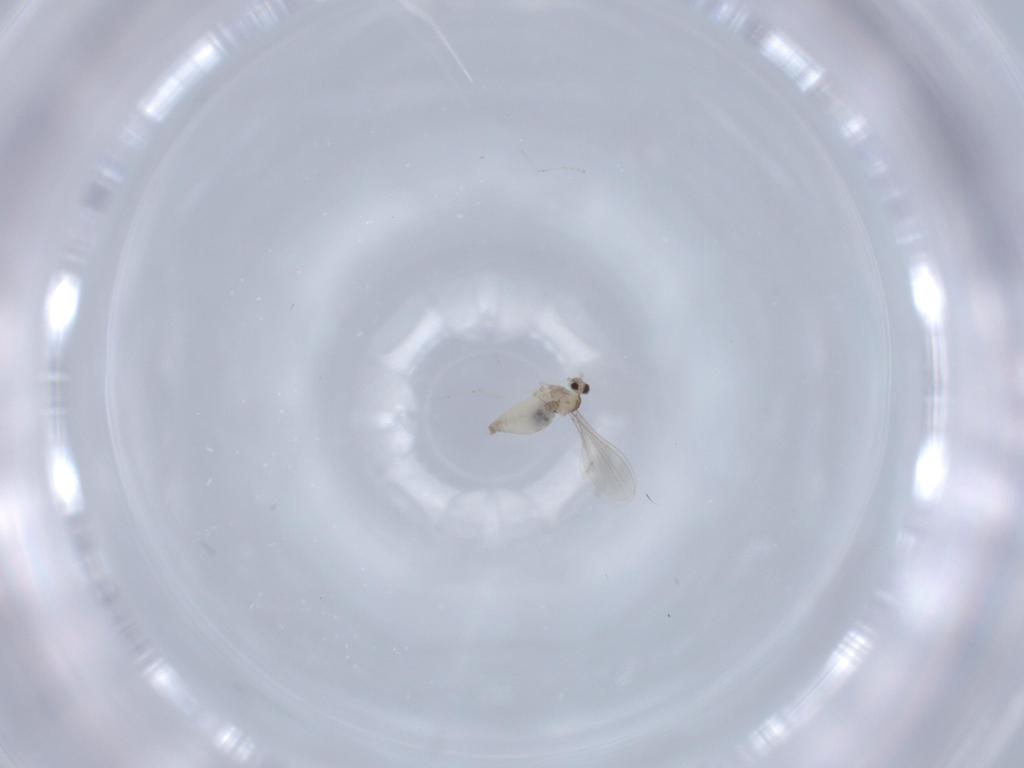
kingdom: Animalia
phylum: Arthropoda
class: Insecta
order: Diptera
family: Cecidomyiidae
